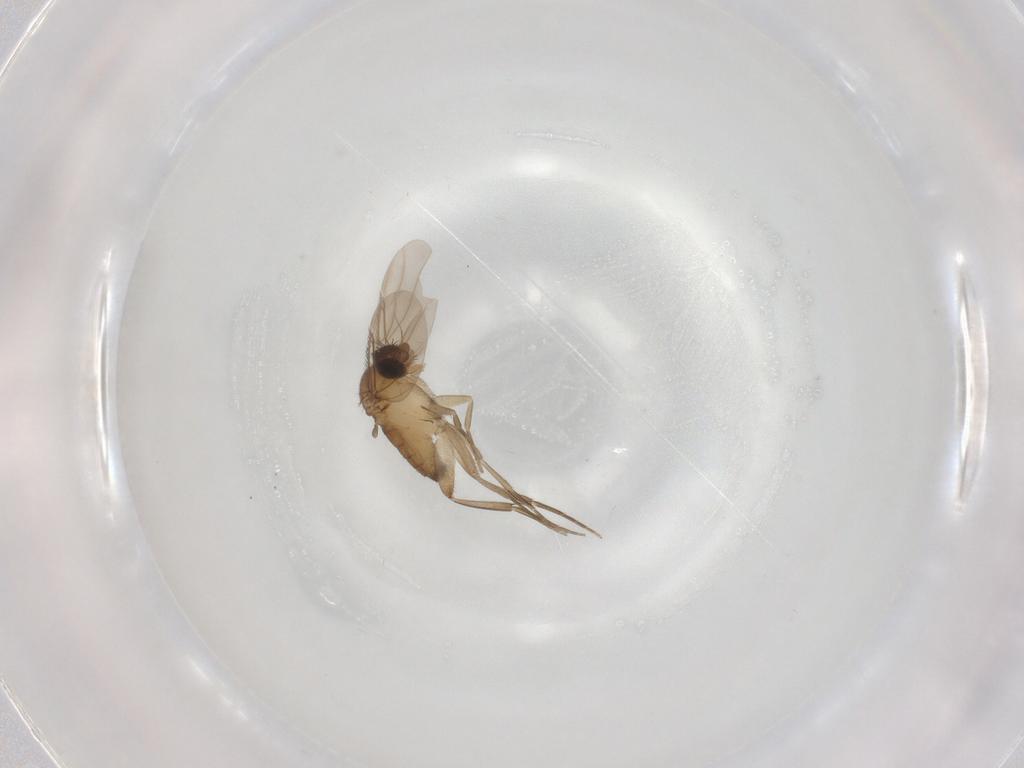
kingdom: Animalia
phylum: Arthropoda
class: Insecta
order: Diptera
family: Phoridae
